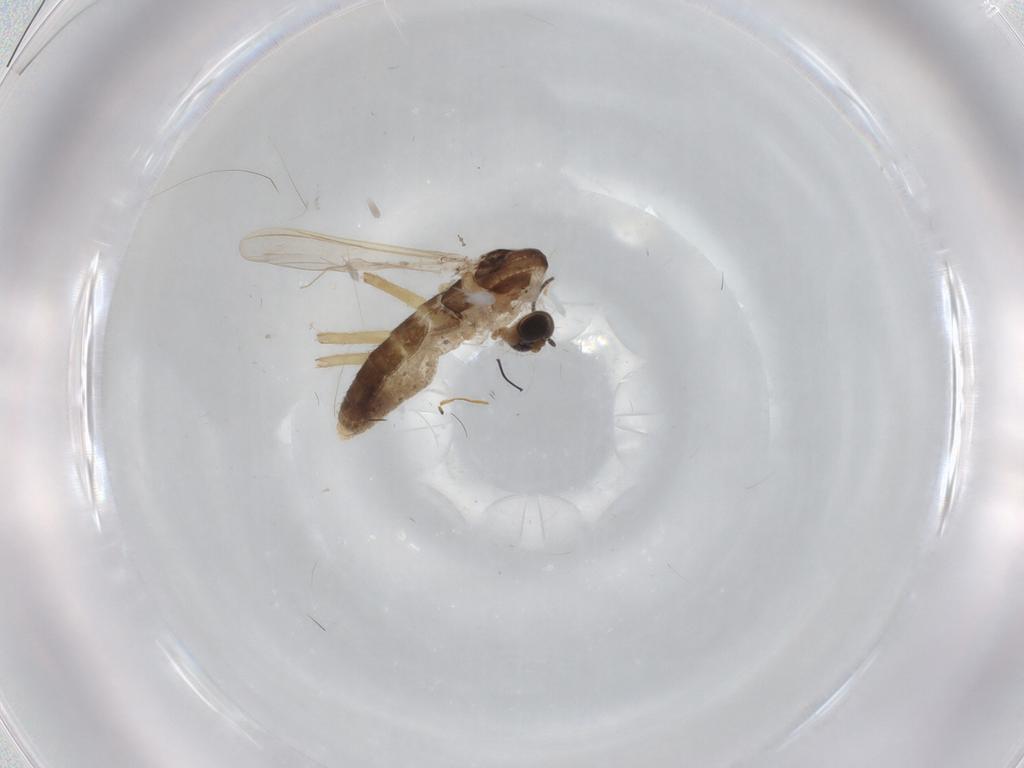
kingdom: Animalia
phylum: Arthropoda
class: Insecta
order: Diptera
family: Chironomidae
